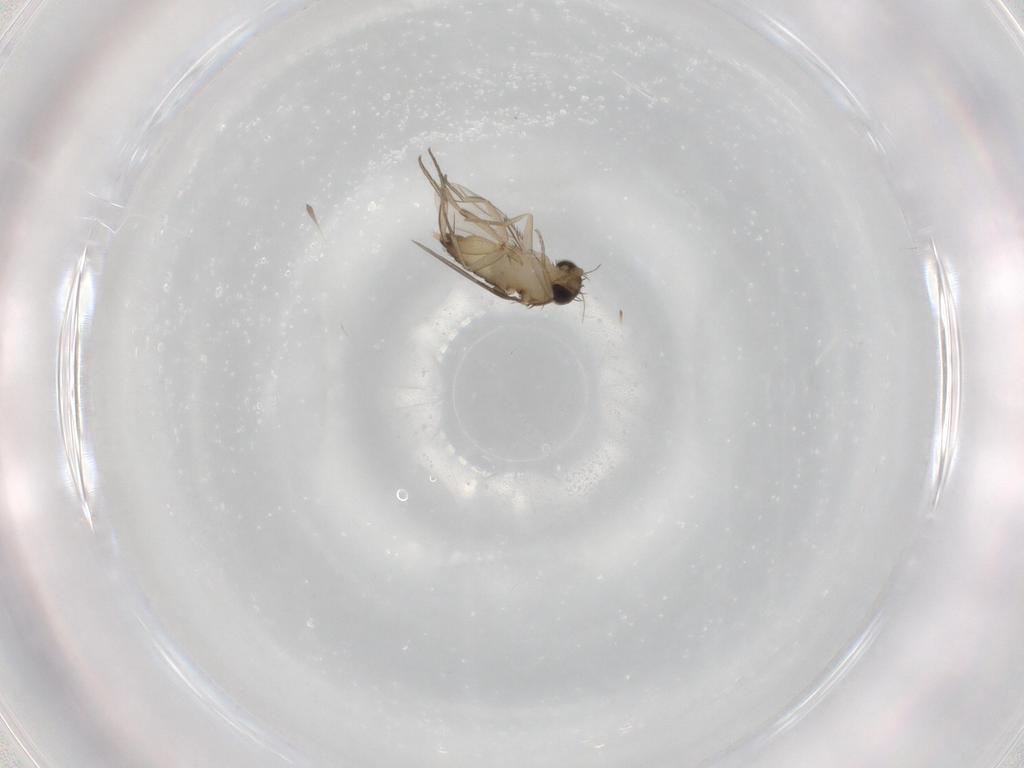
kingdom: Animalia
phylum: Arthropoda
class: Insecta
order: Diptera
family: Phoridae
